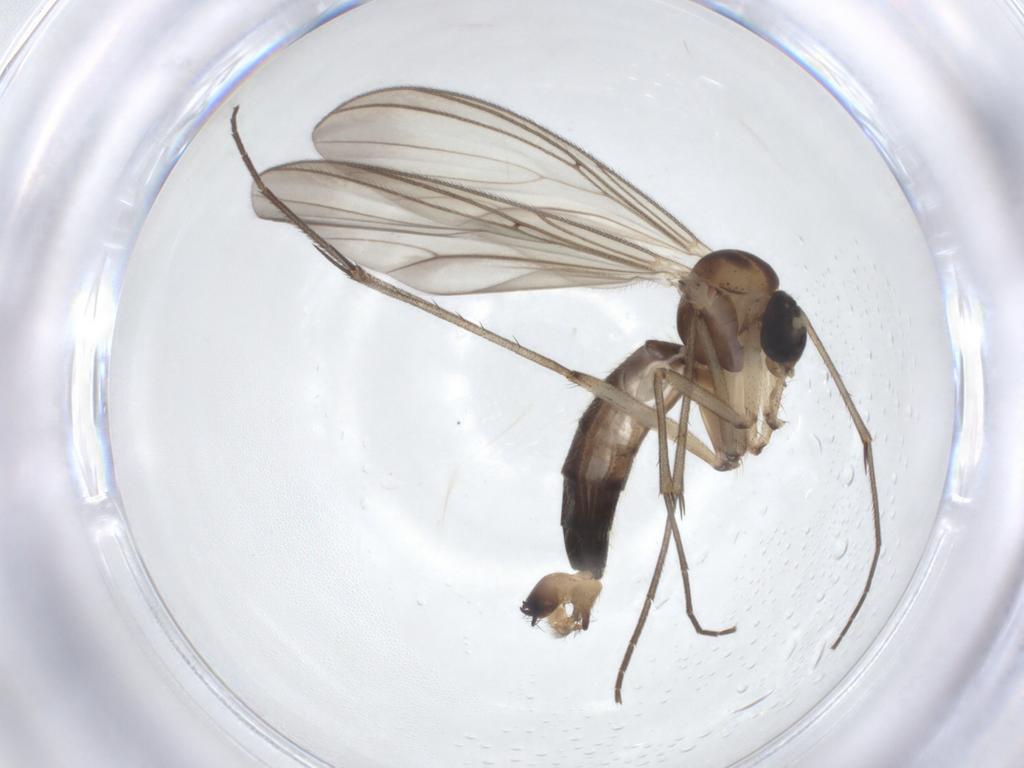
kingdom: Animalia
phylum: Arthropoda
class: Insecta
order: Diptera
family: Mycetophilidae
